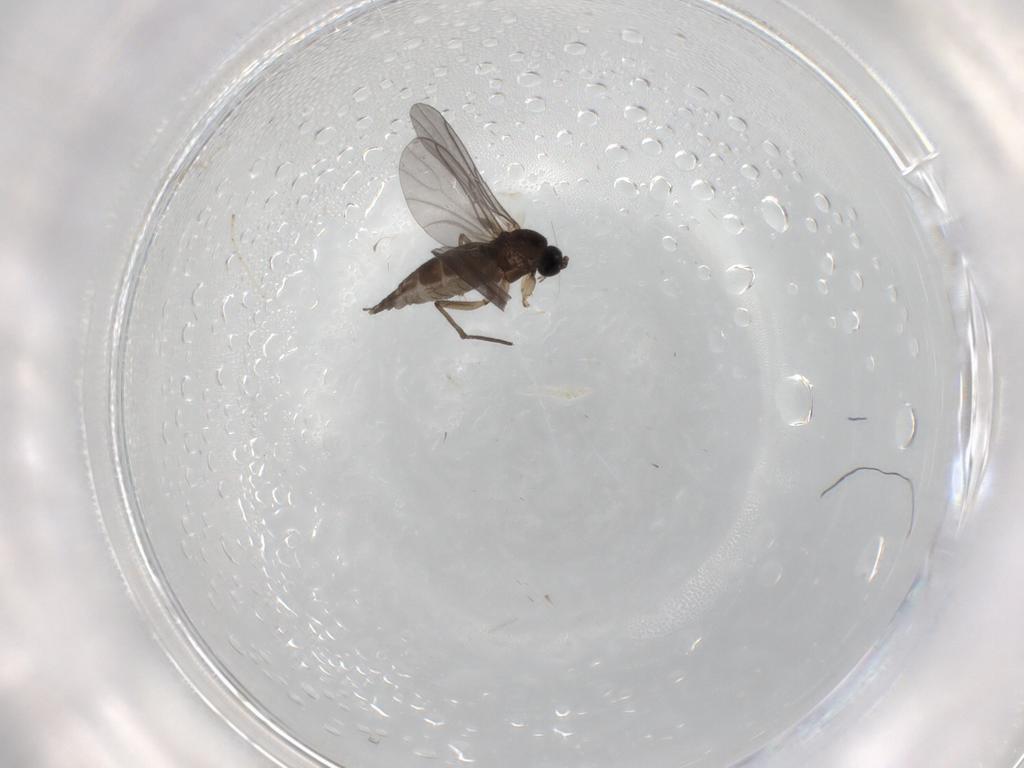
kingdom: Animalia
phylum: Arthropoda
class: Insecta
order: Diptera
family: Sciaridae
